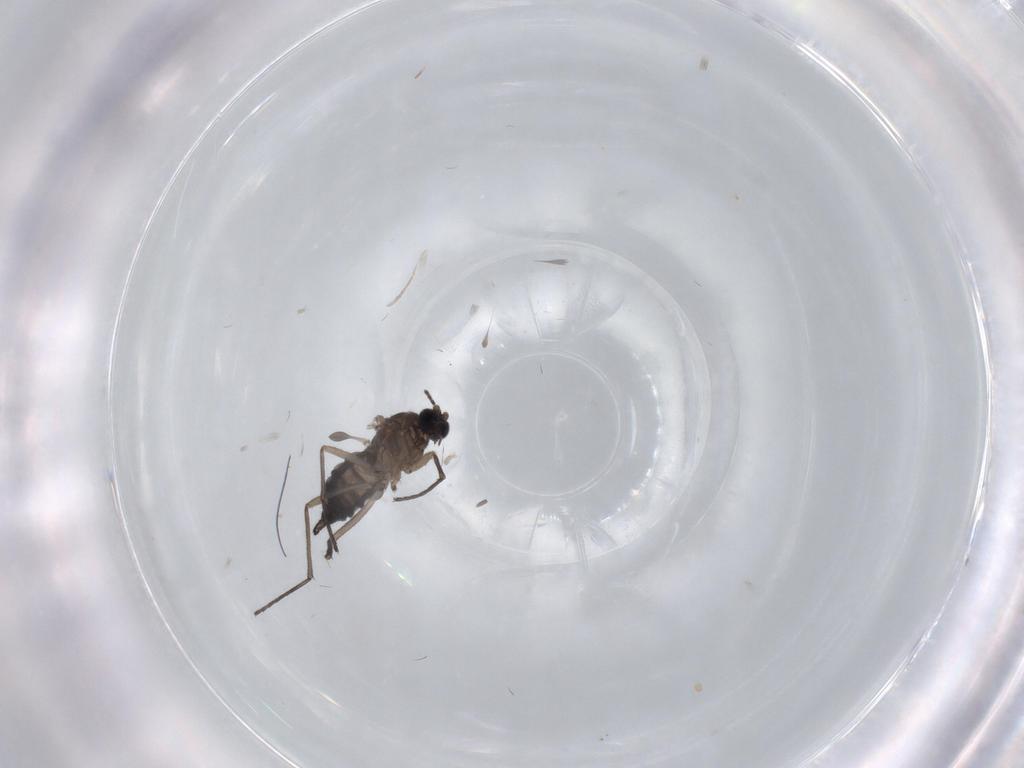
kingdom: Animalia
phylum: Arthropoda
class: Insecta
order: Diptera
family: Sciaridae
